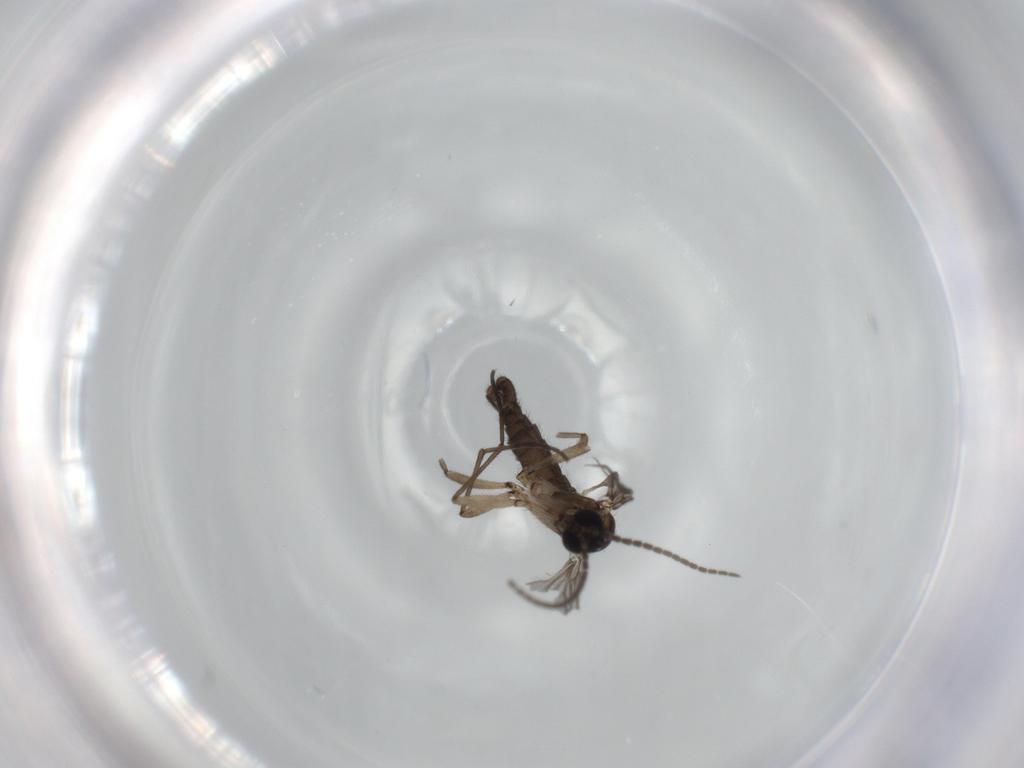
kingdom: Animalia
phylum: Arthropoda
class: Insecta
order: Diptera
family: Sciaridae
